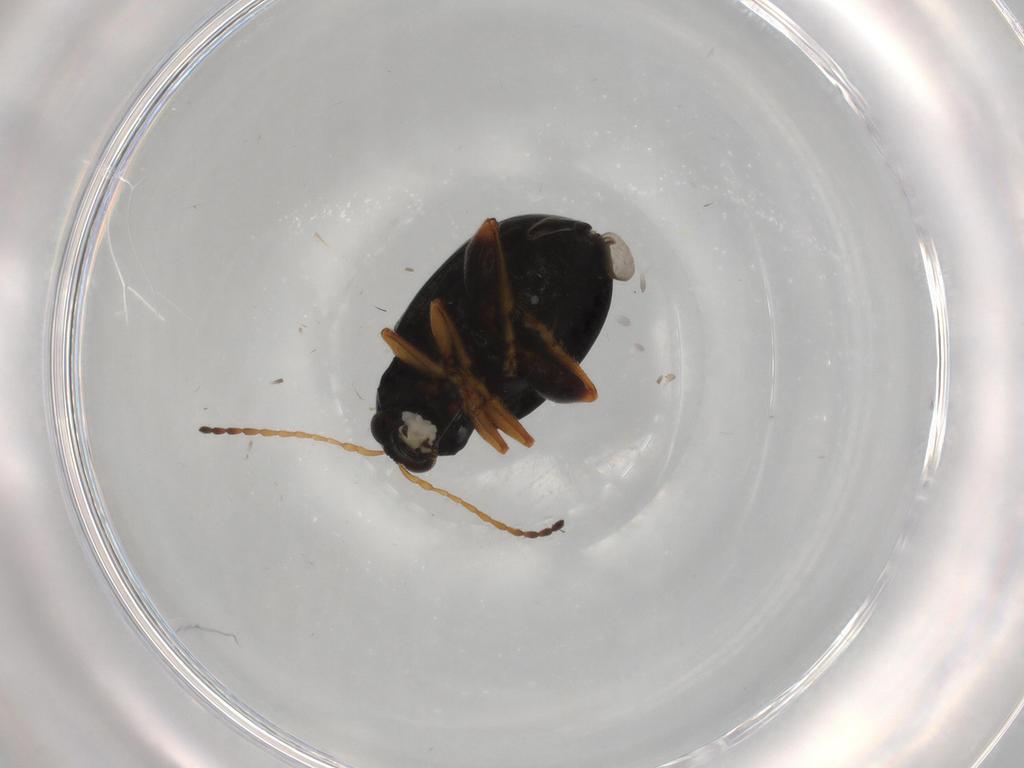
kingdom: Animalia
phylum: Arthropoda
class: Insecta
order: Coleoptera
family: Chrysomelidae
